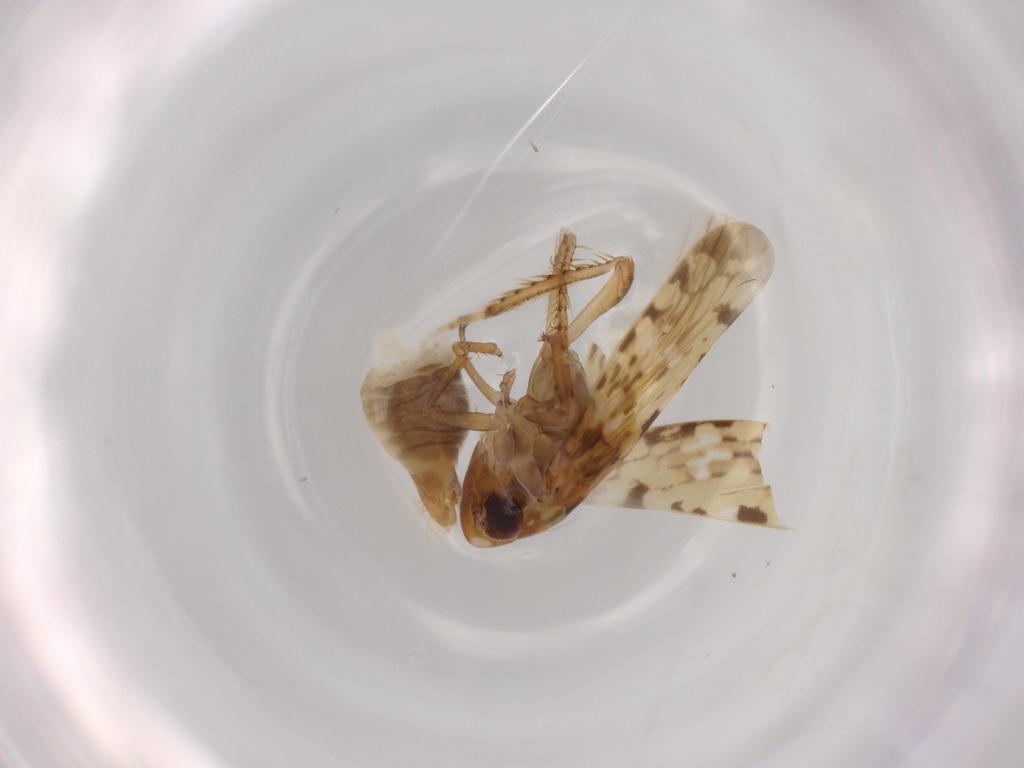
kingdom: Animalia
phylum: Arthropoda
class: Insecta
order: Hemiptera
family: Cicadellidae
